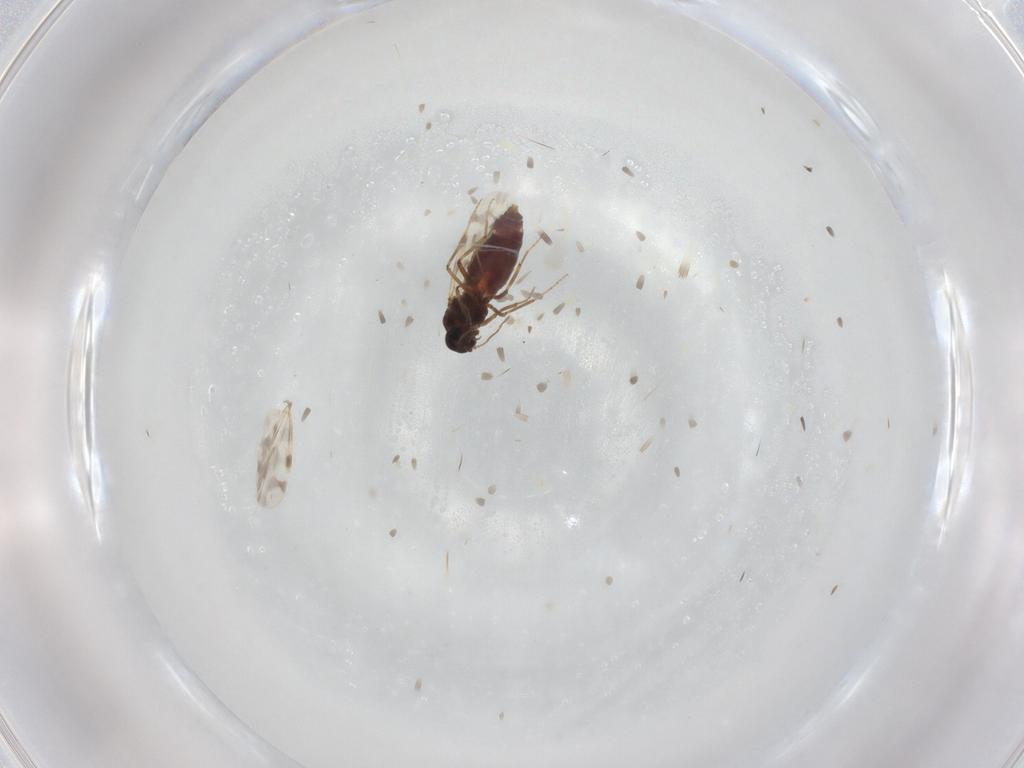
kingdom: Animalia
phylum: Arthropoda
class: Insecta
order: Diptera
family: Ceratopogonidae
